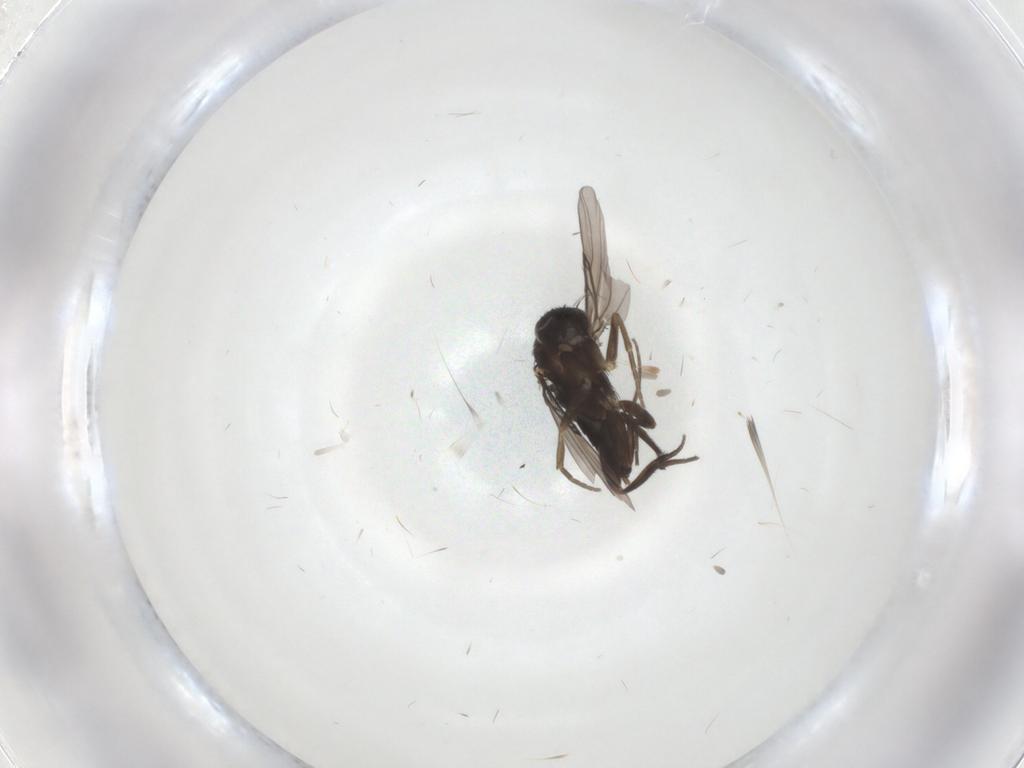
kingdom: Animalia
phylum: Arthropoda
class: Insecta
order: Diptera
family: Phoridae
